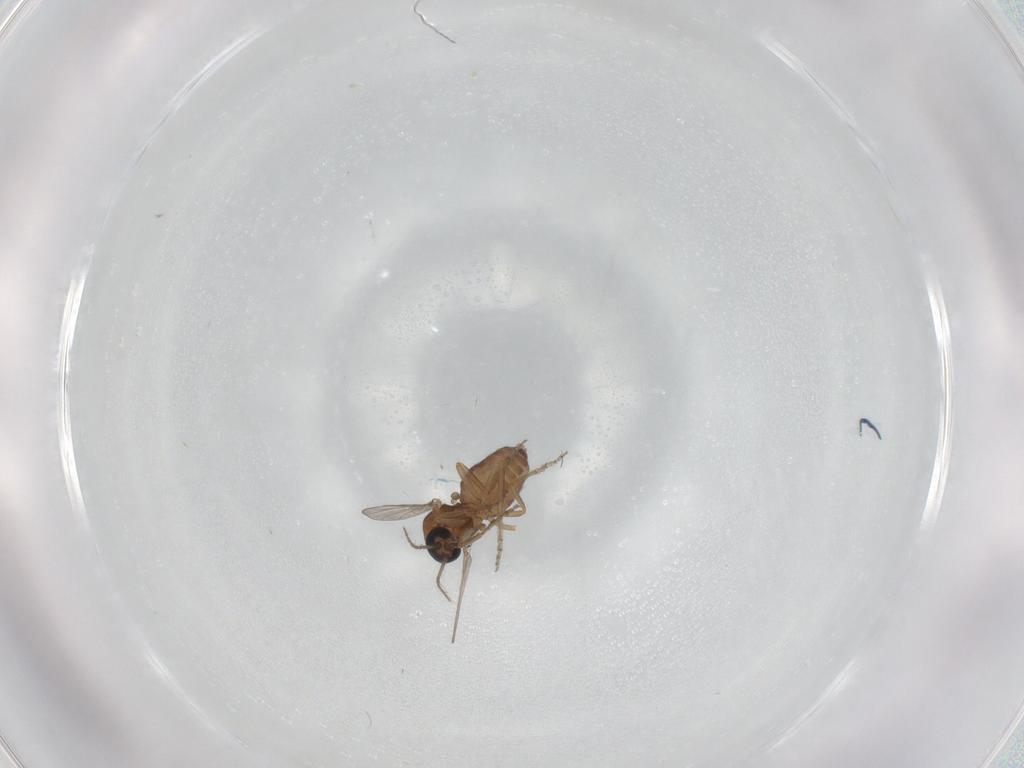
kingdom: Animalia
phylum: Arthropoda
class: Insecta
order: Diptera
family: Ceratopogonidae
